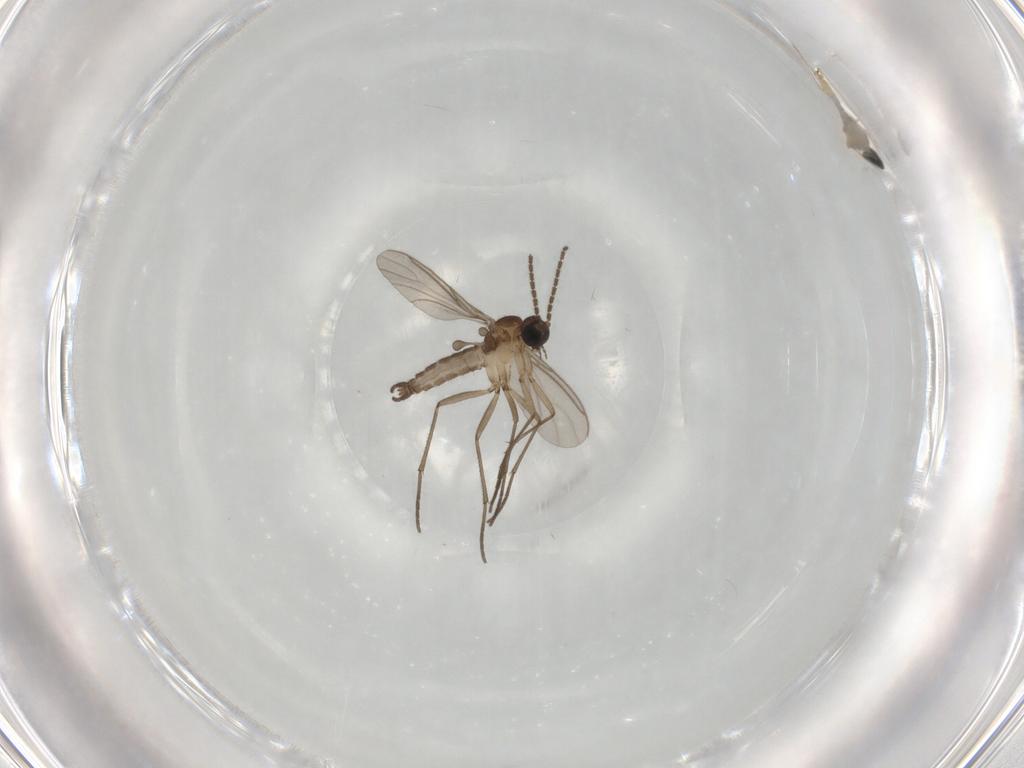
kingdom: Animalia
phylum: Arthropoda
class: Insecta
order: Diptera
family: Sciaridae
